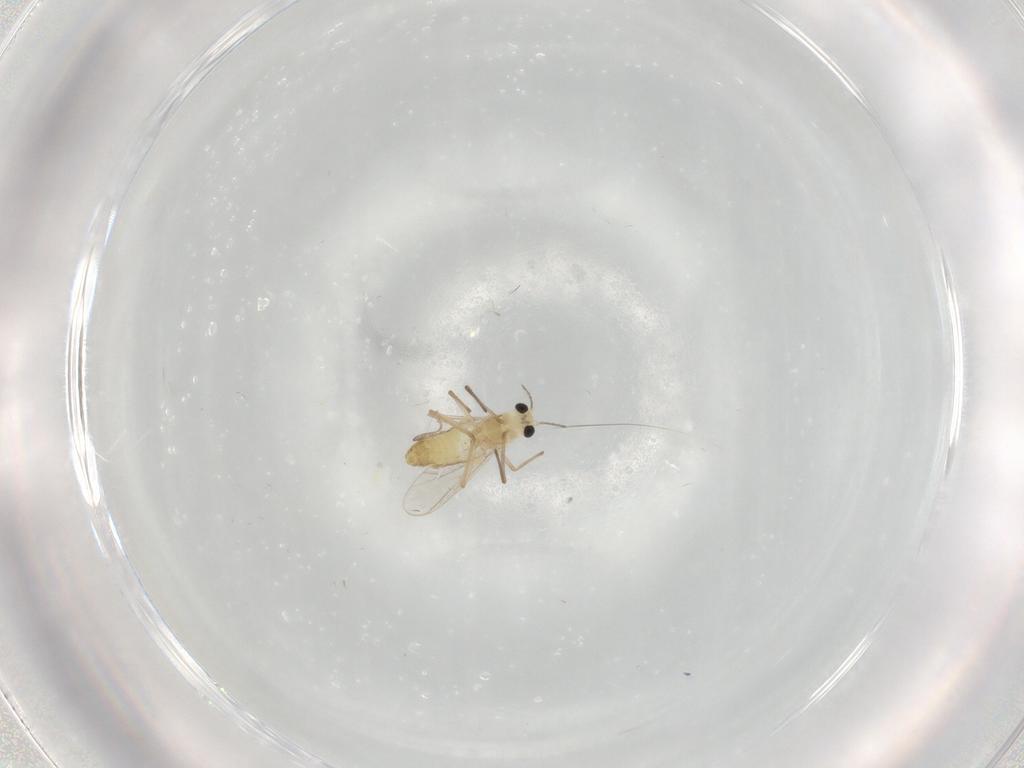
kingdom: Animalia
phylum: Arthropoda
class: Insecta
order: Diptera
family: Chironomidae
